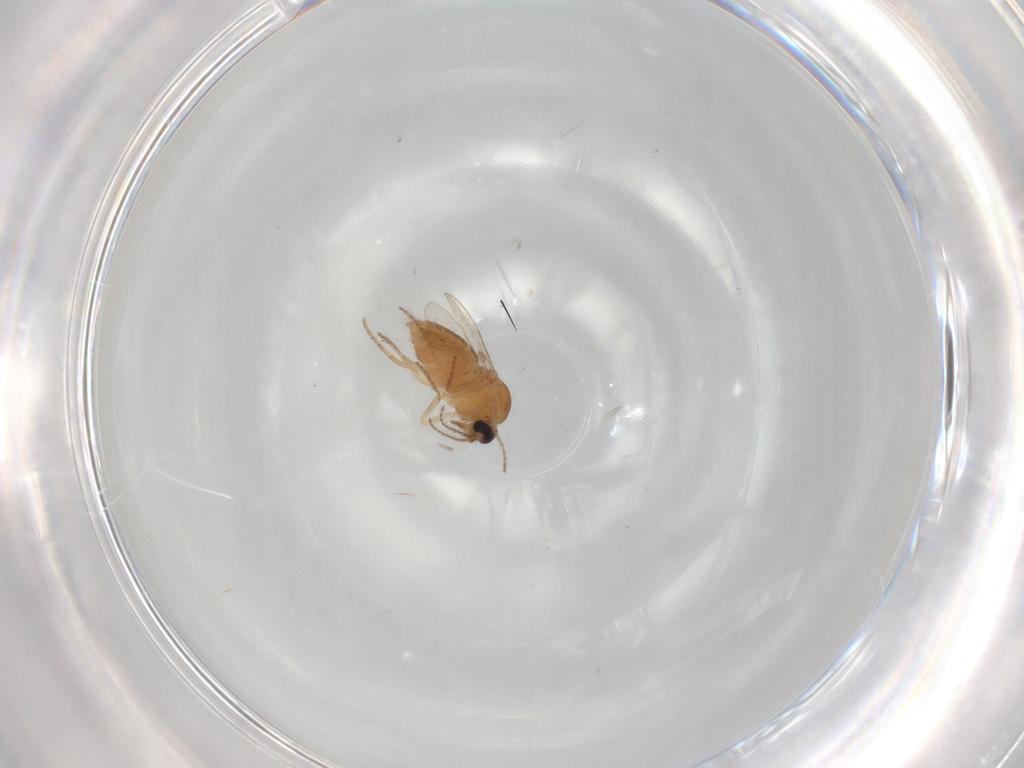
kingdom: Animalia
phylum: Arthropoda
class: Insecta
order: Diptera
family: Ceratopogonidae
